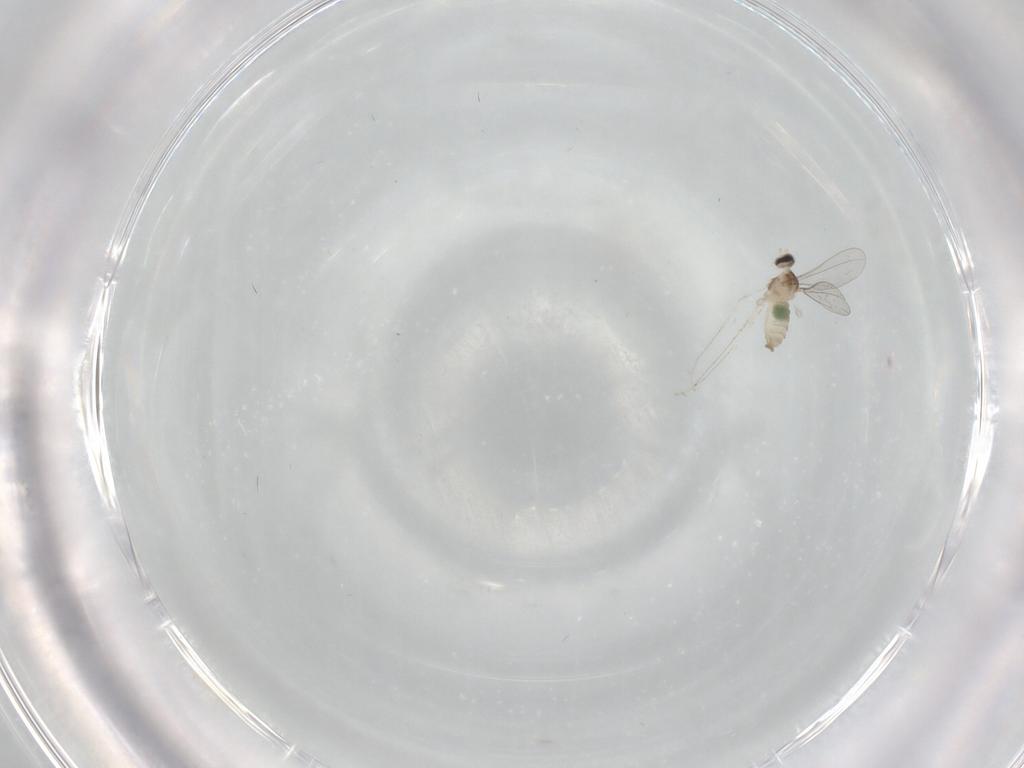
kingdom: Animalia
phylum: Arthropoda
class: Insecta
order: Diptera
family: Cecidomyiidae
